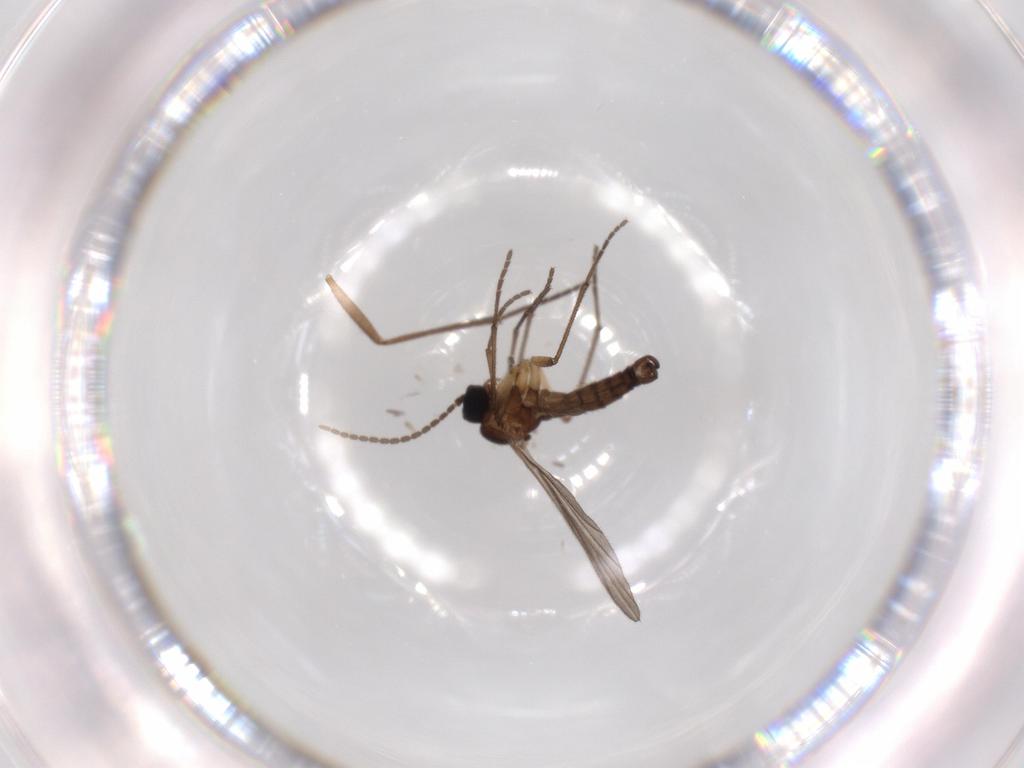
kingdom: Animalia
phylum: Arthropoda
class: Insecta
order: Diptera
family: Sciaridae
